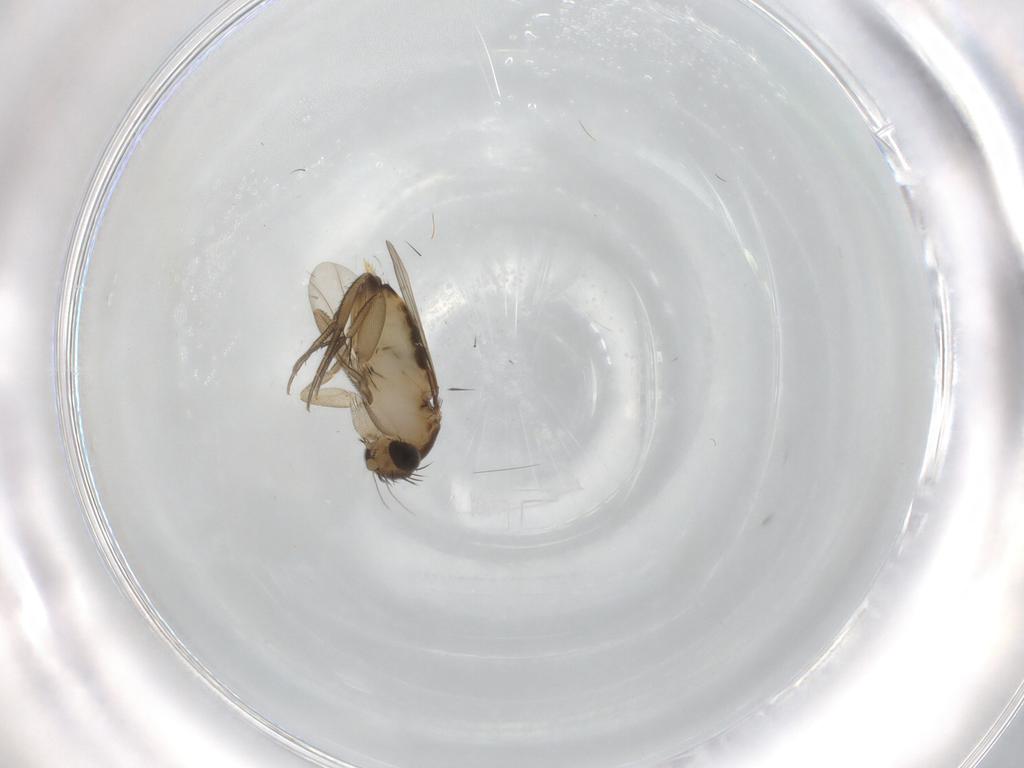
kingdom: Animalia
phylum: Arthropoda
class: Insecta
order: Diptera
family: Phoridae
